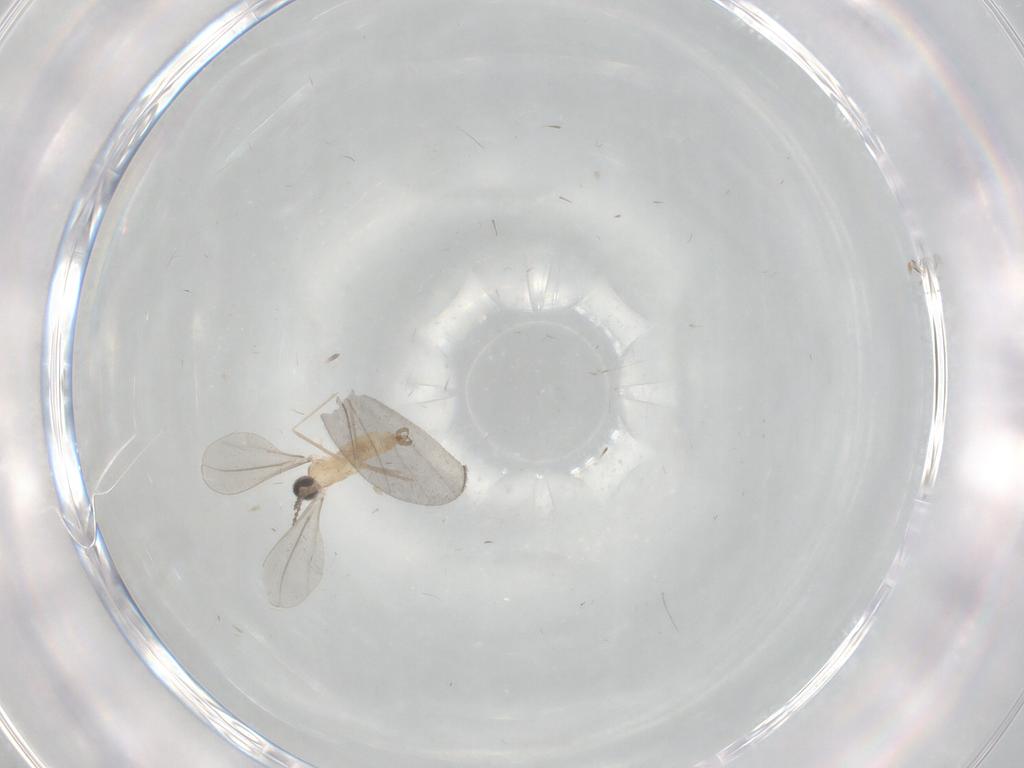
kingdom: Animalia
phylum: Arthropoda
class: Insecta
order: Diptera
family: Cecidomyiidae
